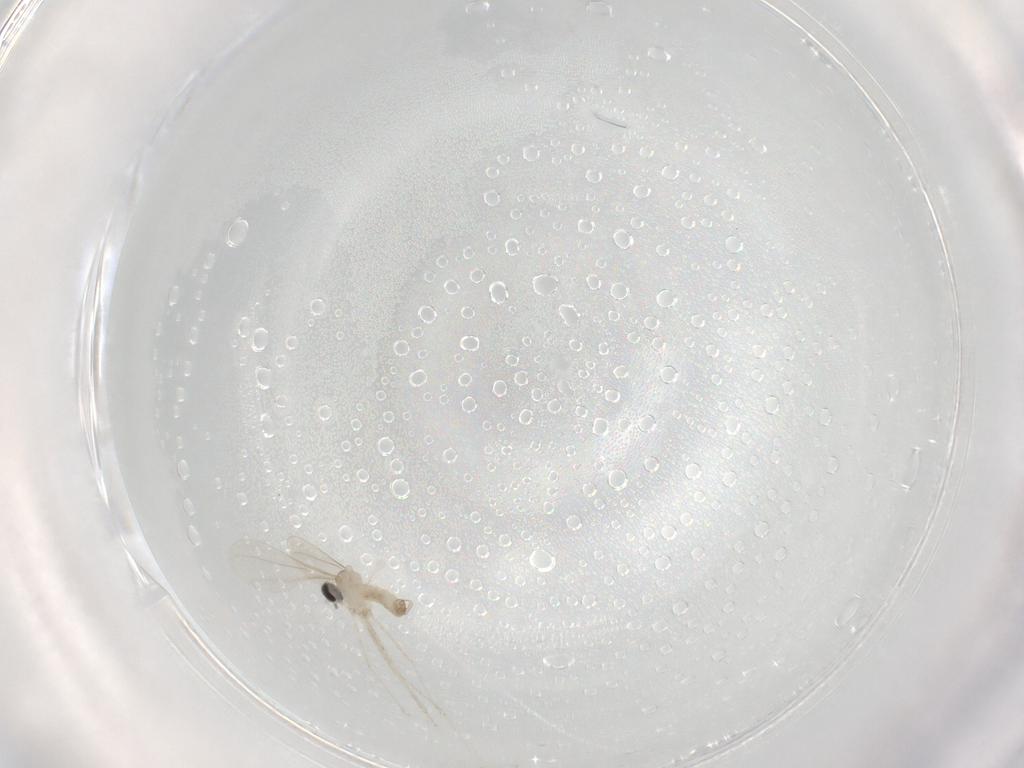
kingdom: Animalia
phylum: Arthropoda
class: Insecta
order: Diptera
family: Cecidomyiidae
